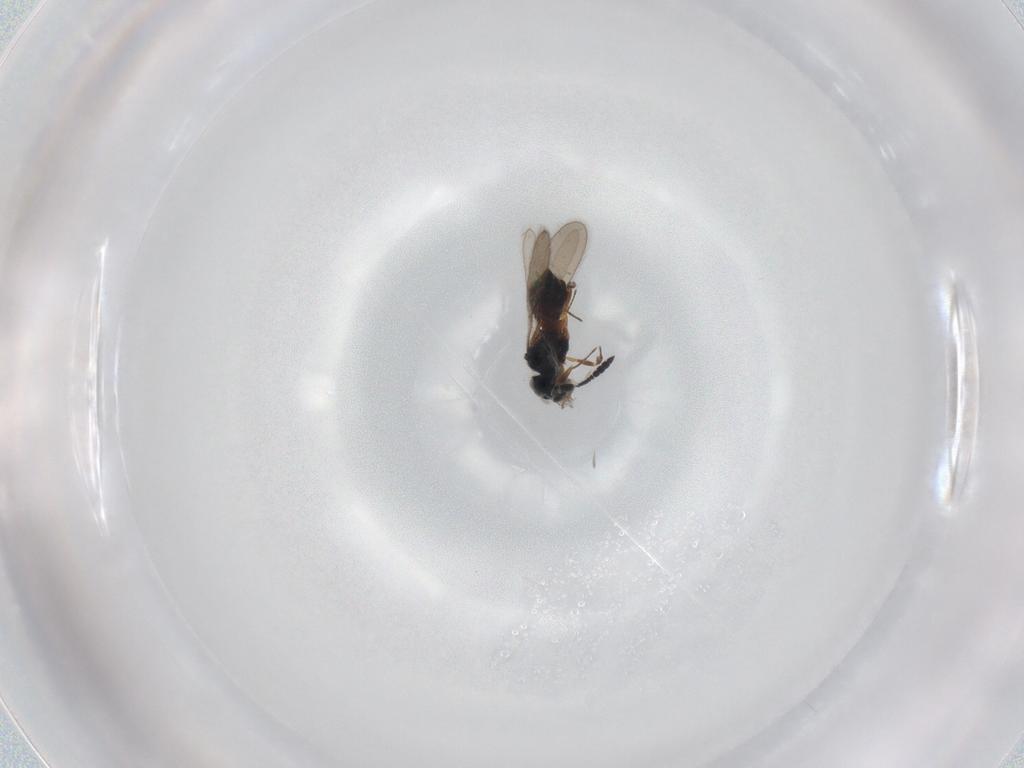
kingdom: Animalia
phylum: Arthropoda
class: Insecta
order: Hymenoptera
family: Scelionidae
